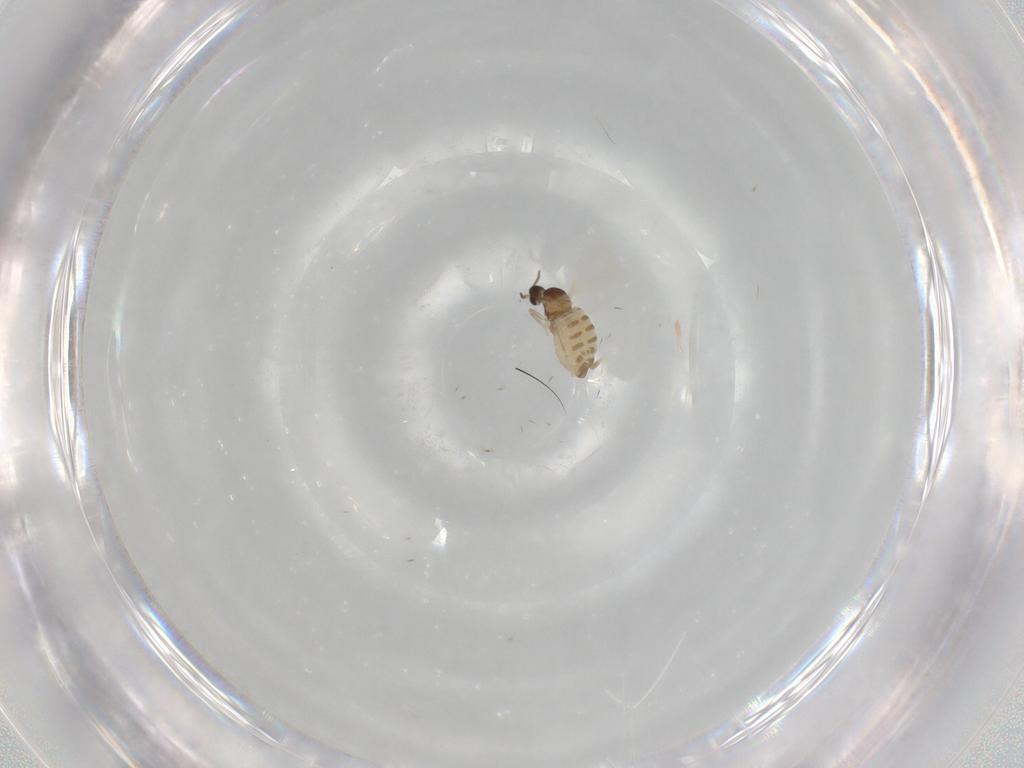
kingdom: Animalia
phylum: Arthropoda
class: Insecta
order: Diptera
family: Cecidomyiidae
